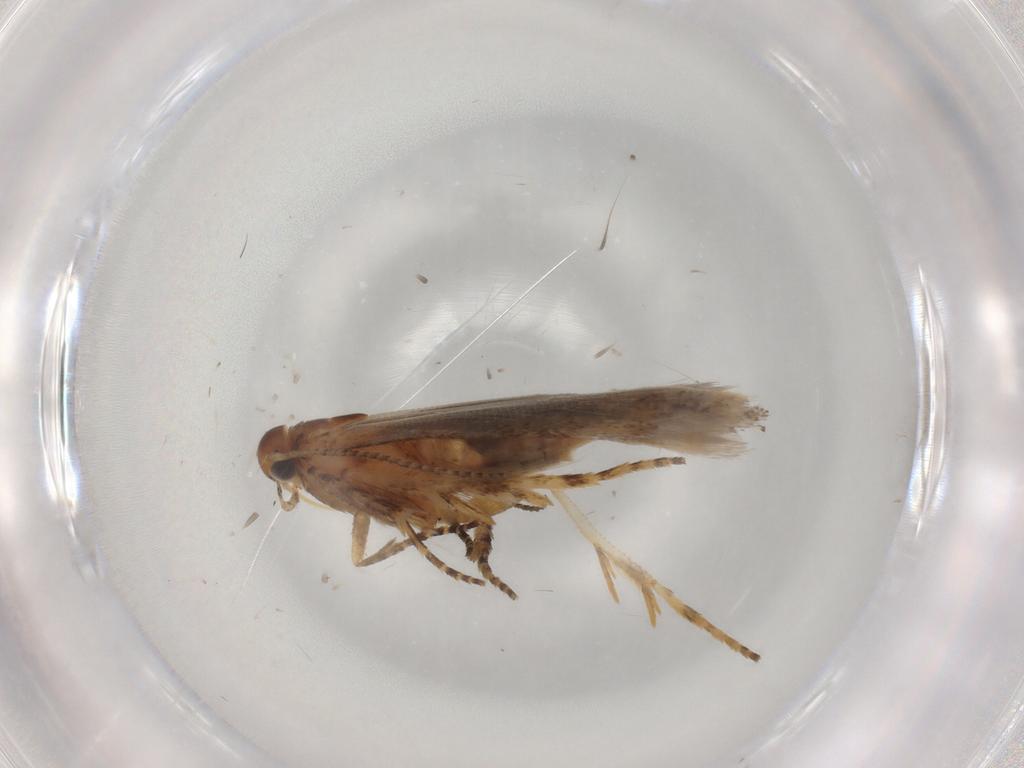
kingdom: Animalia
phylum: Arthropoda
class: Insecta
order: Lepidoptera
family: Gelechiidae
